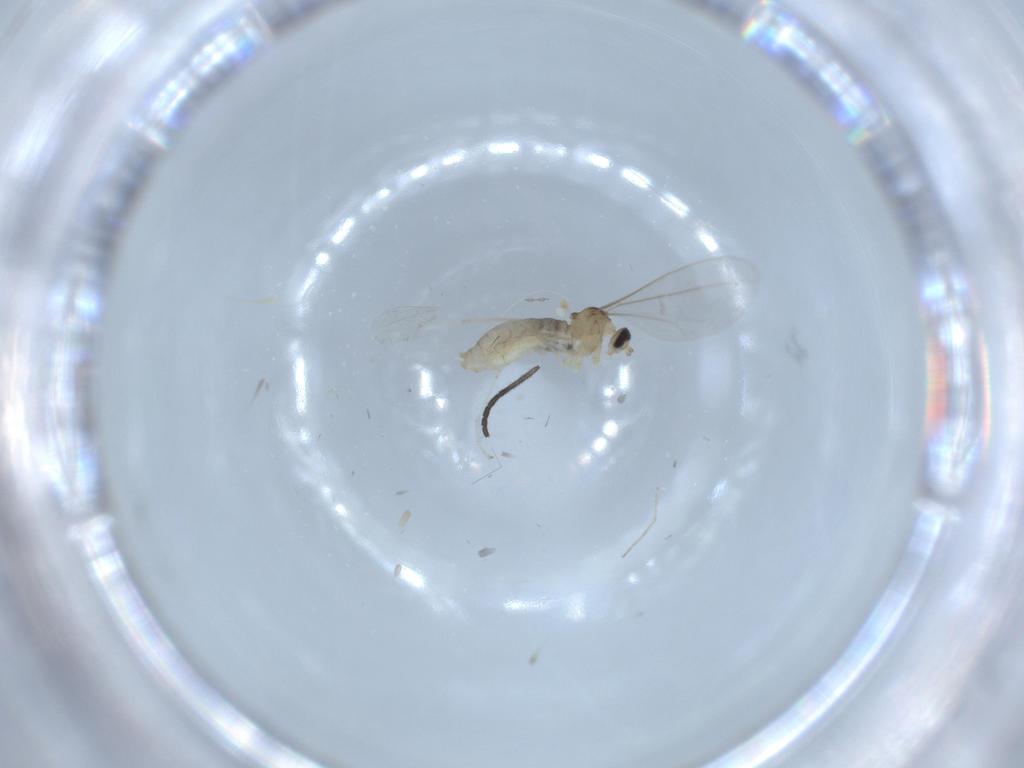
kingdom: Animalia
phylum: Arthropoda
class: Insecta
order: Diptera
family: Cecidomyiidae
